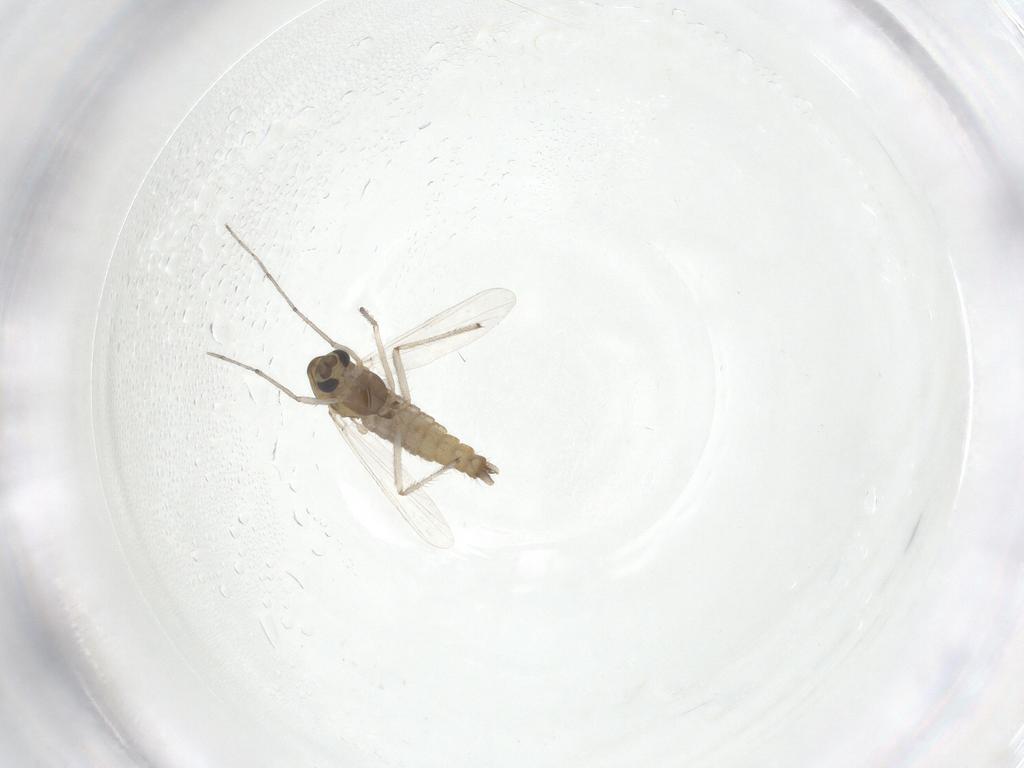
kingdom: Animalia
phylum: Arthropoda
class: Insecta
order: Diptera
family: Chironomidae
